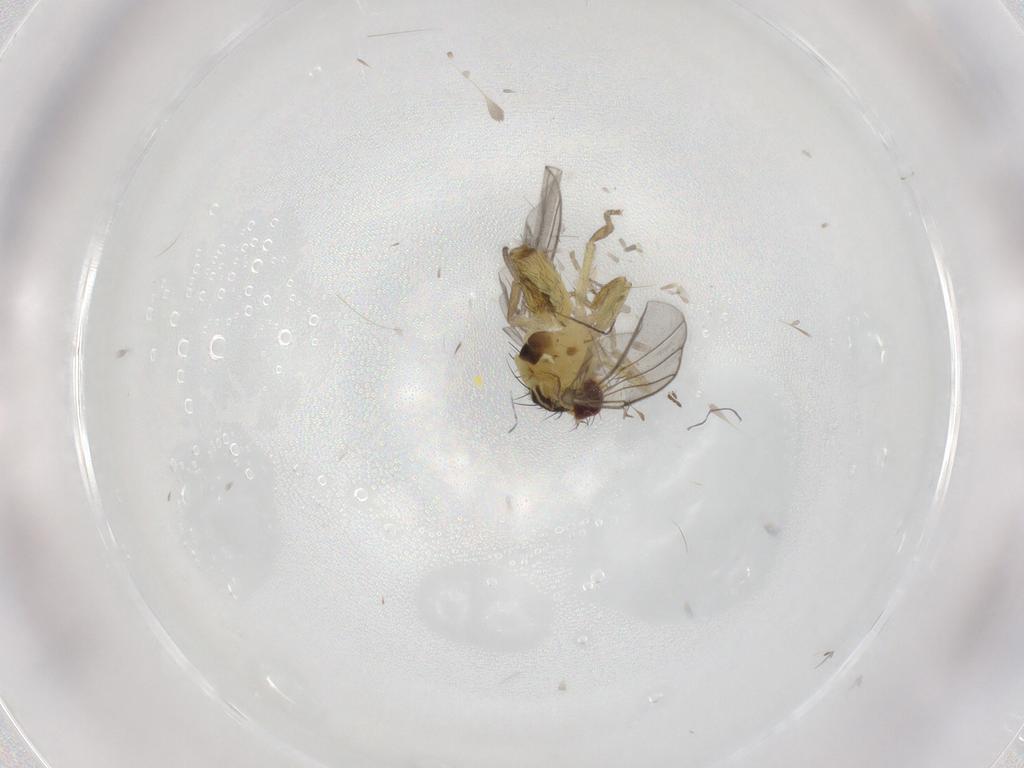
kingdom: Animalia
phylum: Arthropoda
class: Insecta
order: Diptera
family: Agromyzidae
